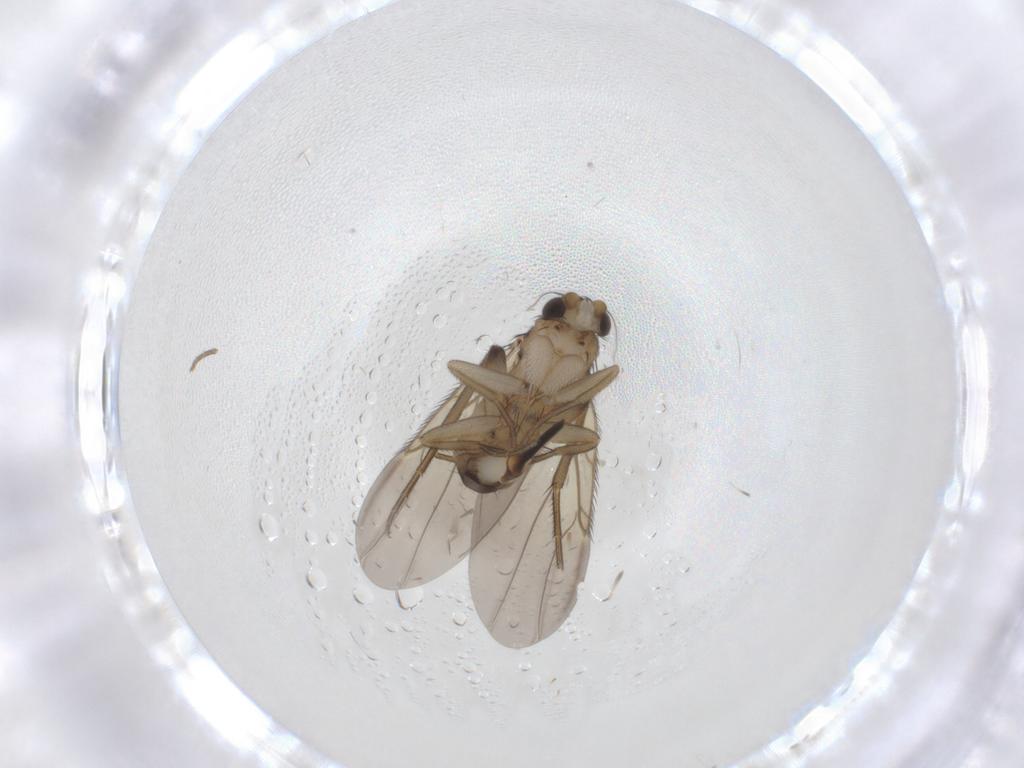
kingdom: Animalia
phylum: Arthropoda
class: Insecta
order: Diptera
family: Phoridae
